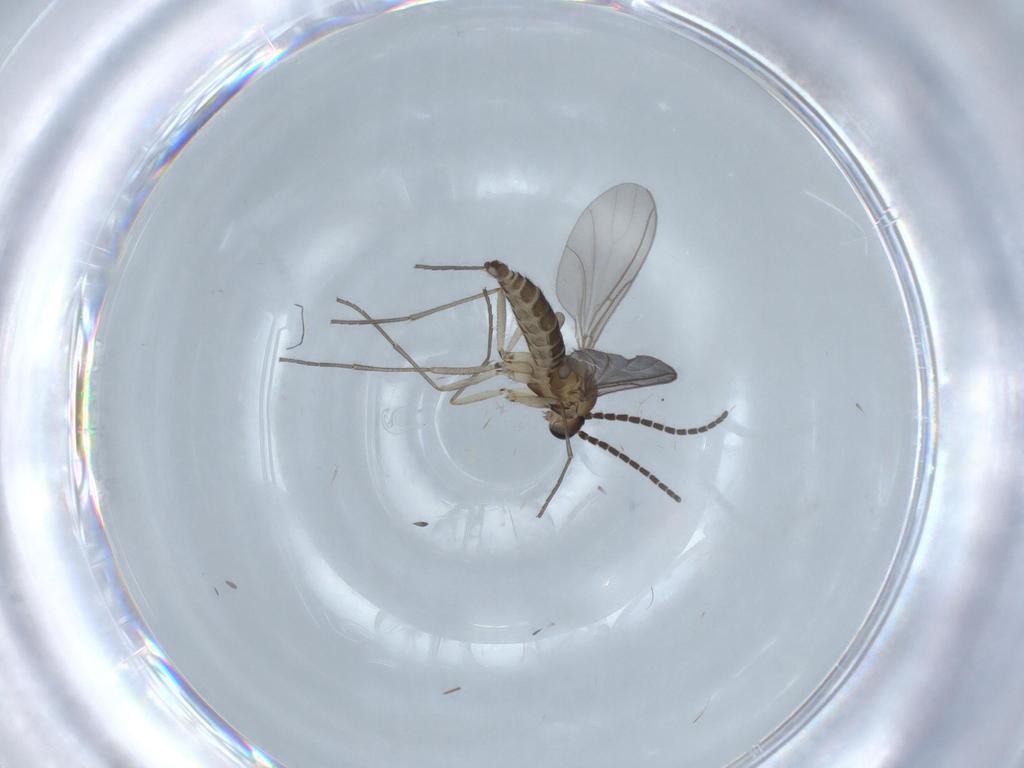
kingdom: Animalia
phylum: Arthropoda
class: Insecta
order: Diptera
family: Sciaridae
